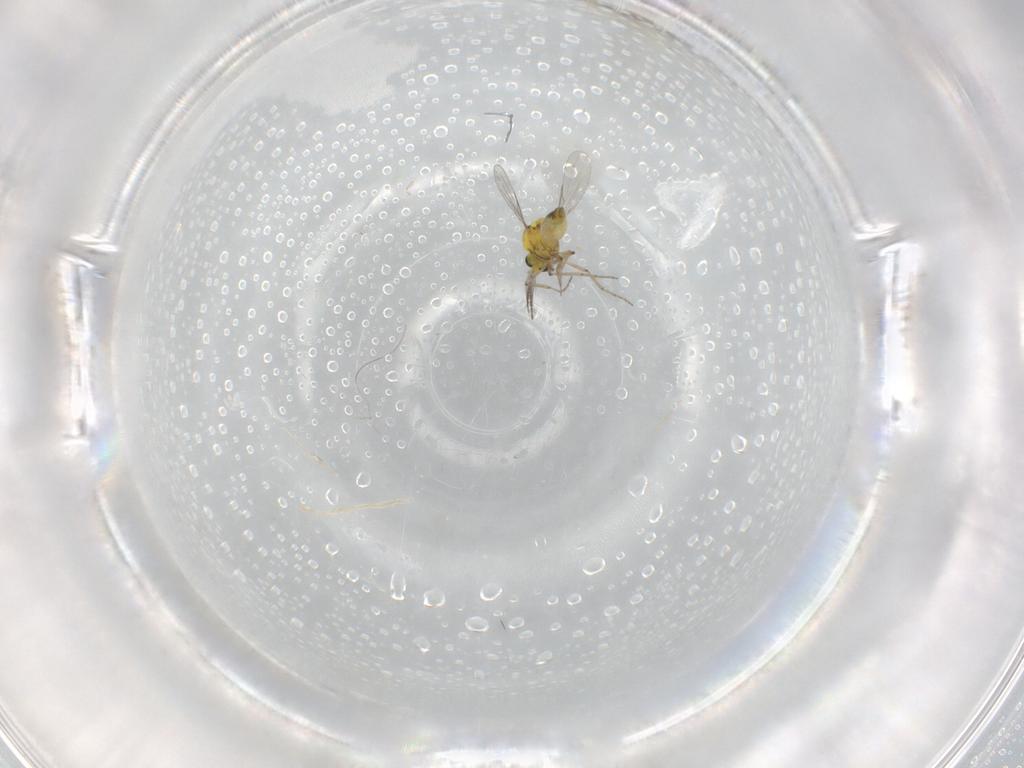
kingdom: Animalia
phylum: Arthropoda
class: Insecta
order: Diptera
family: Ceratopogonidae
